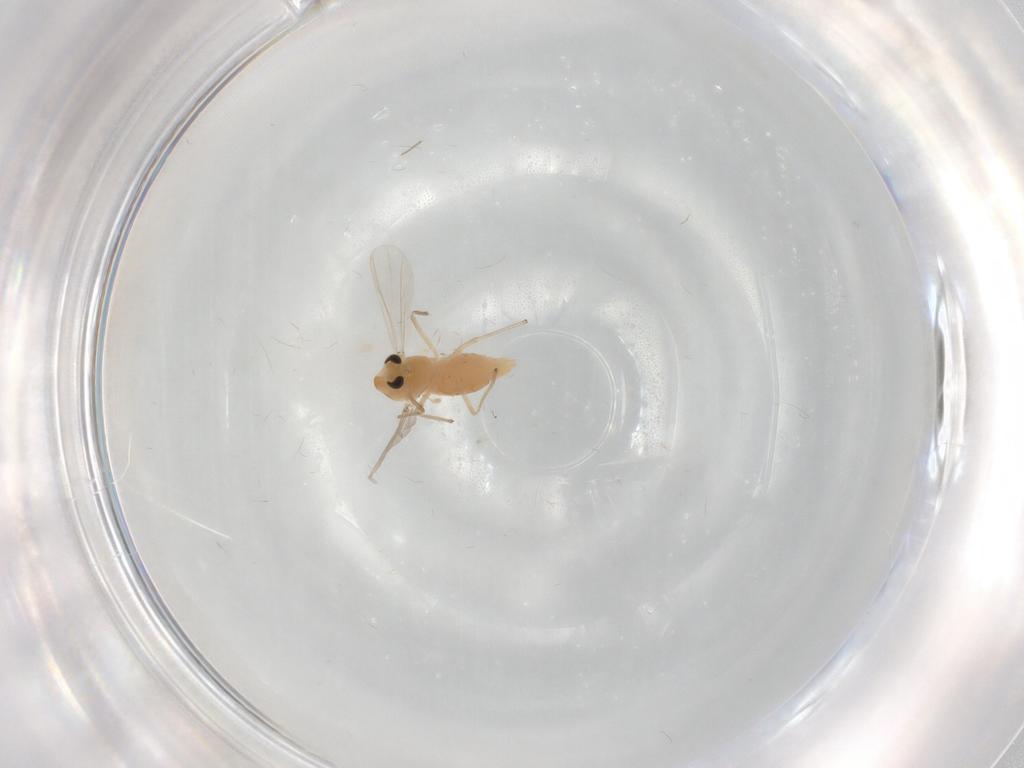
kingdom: Animalia
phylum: Arthropoda
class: Insecta
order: Diptera
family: Chironomidae
